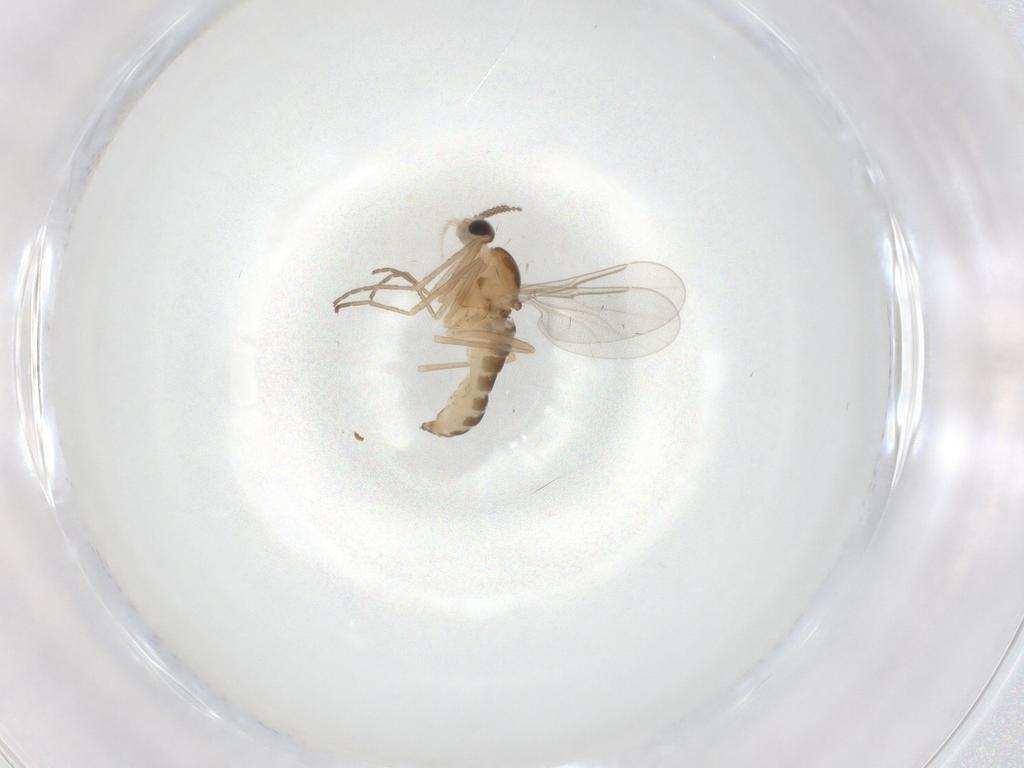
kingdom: Animalia
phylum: Arthropoda
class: Insecta
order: Diptera
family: Cecidomyiidae
